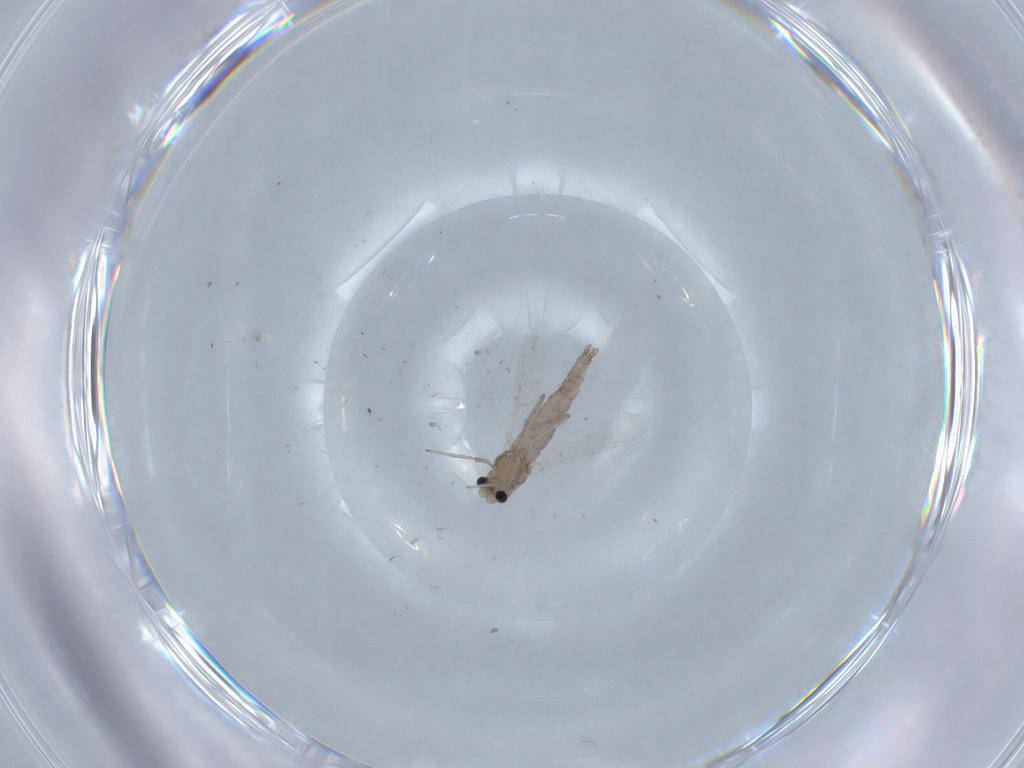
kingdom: Animalia
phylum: Arthropoda
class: Insecta
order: Diptera
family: Chironomidae
